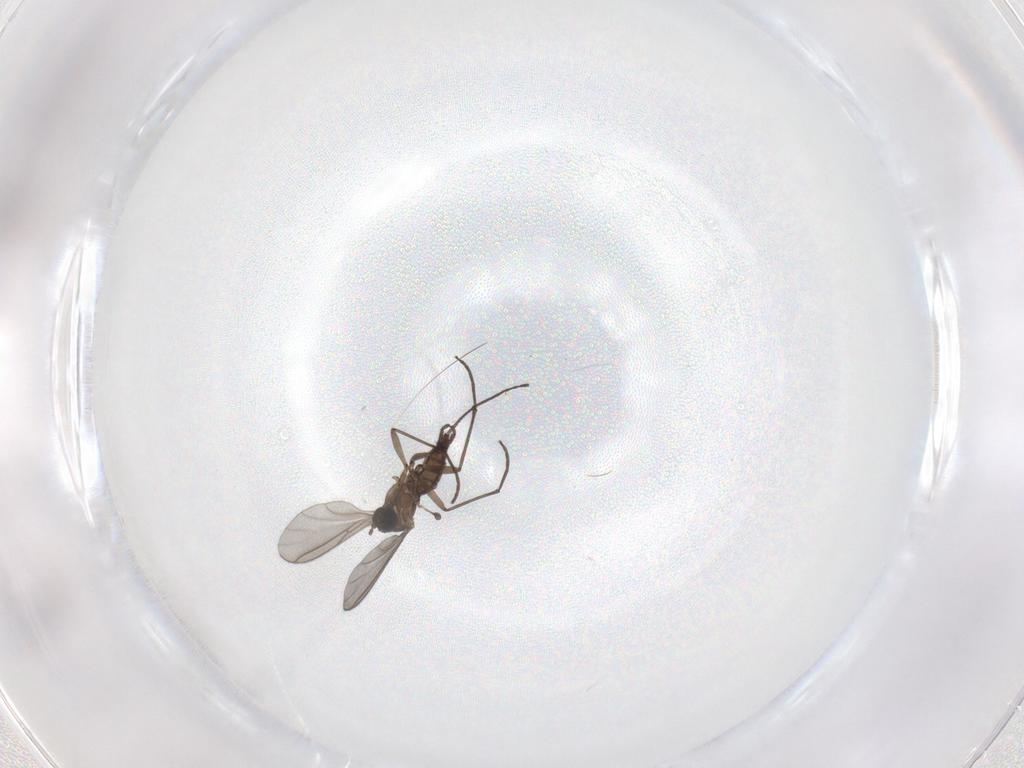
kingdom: Animalia
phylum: Arthropoda
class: Insecta
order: Diptera
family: Sciaridae
